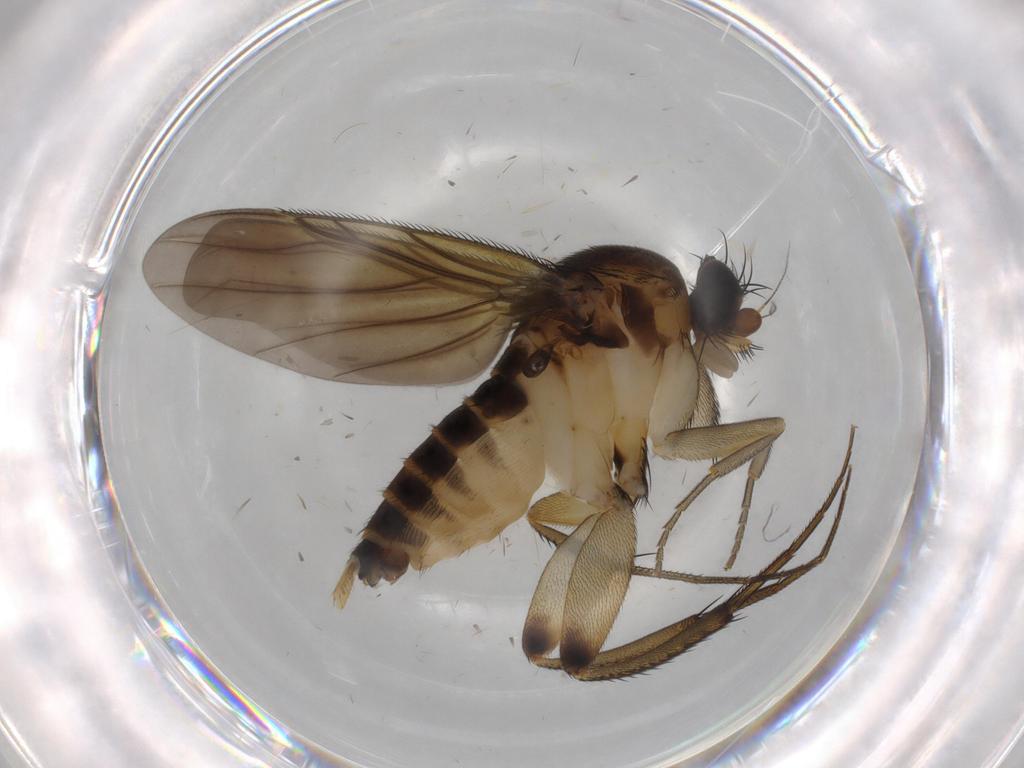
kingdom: Animalia
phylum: Arthropoda
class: Insecta
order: Diptera
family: Phoridae
